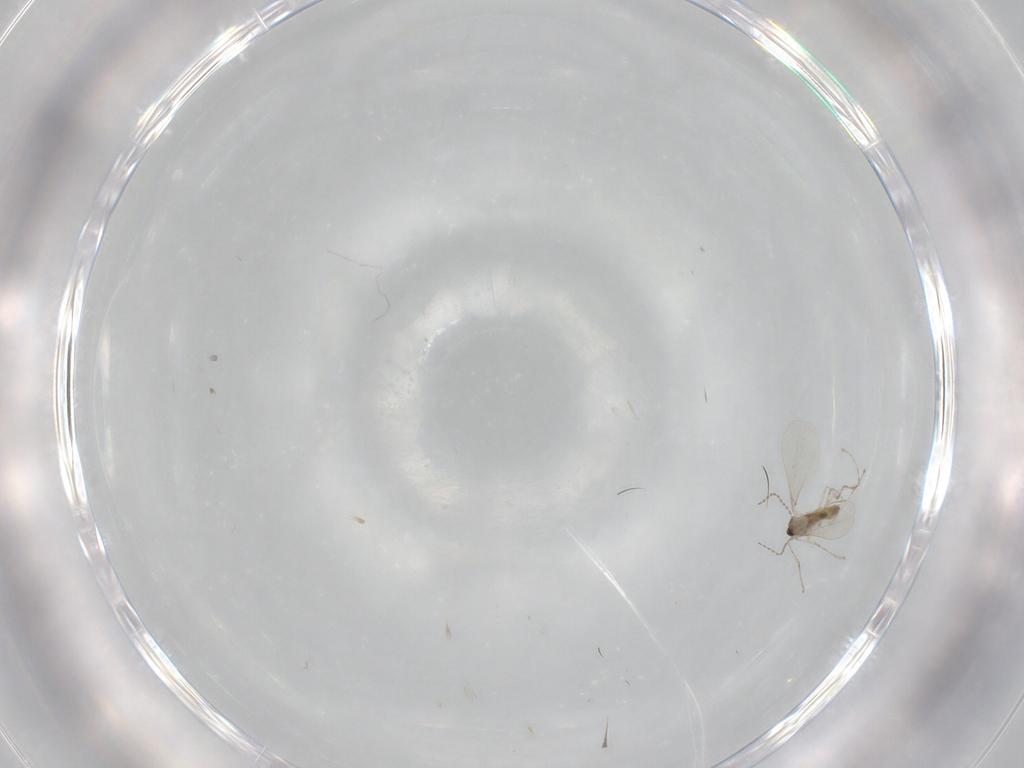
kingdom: Animalia
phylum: Arthropoda
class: Insecta
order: Diptera
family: Cecidomyiidae
